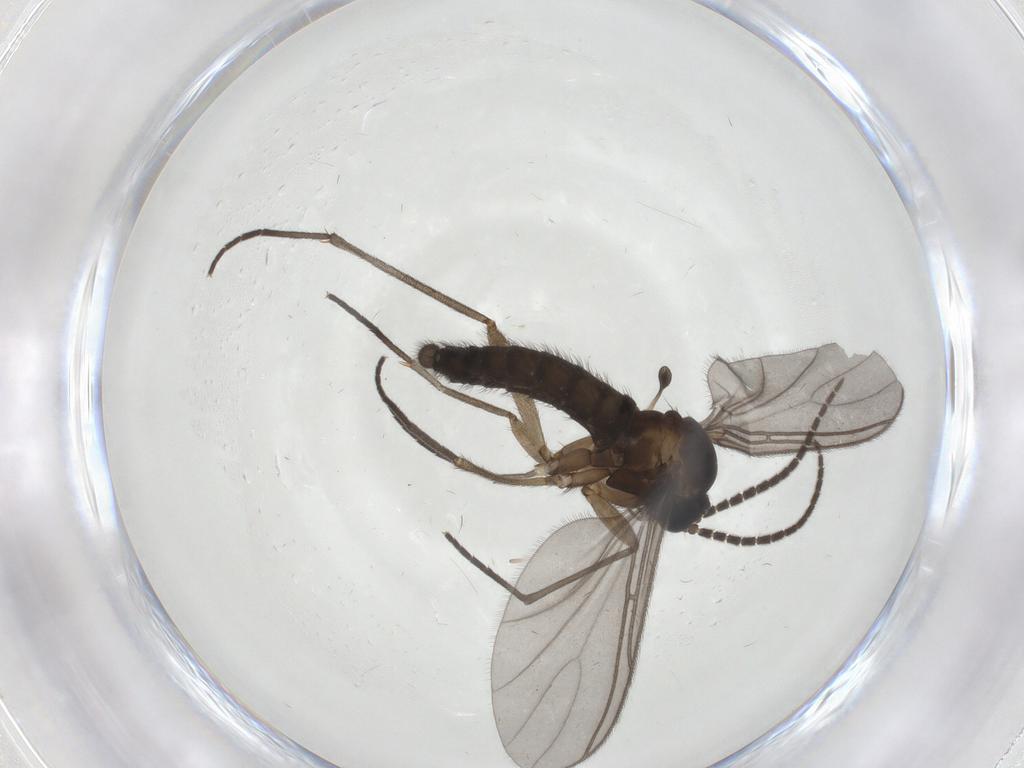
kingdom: Animalia
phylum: Arthropoda
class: Insecta
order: Diptera
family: Sciaridae
